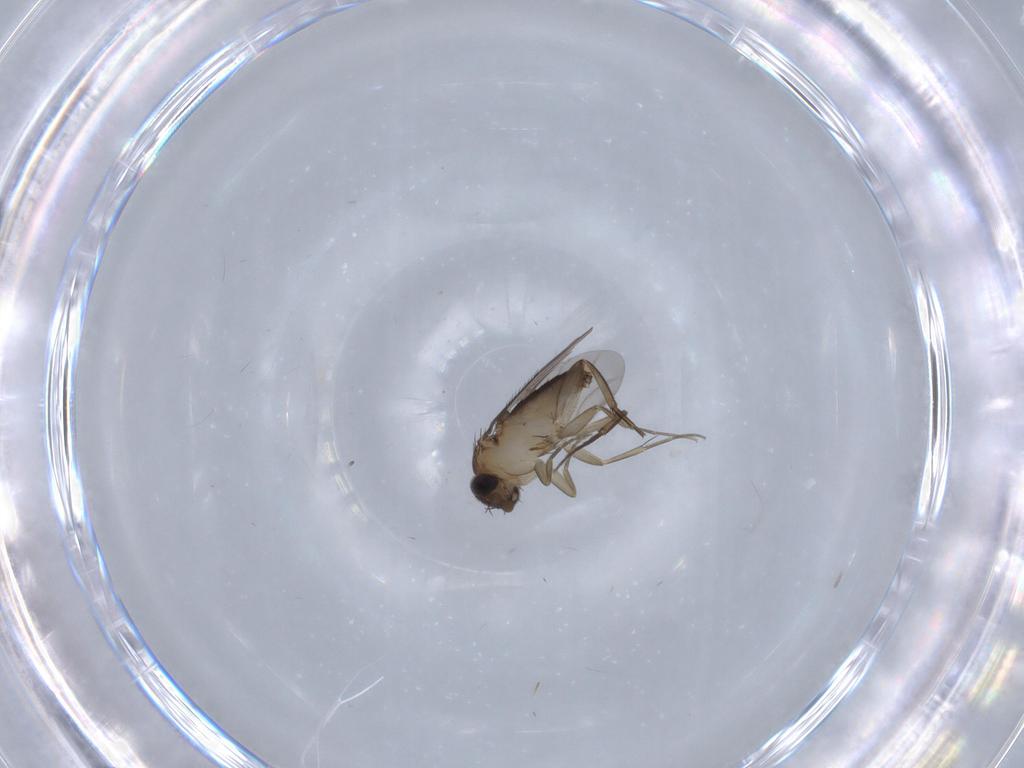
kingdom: Animalia
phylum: Arthropoda
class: Insecta
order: Diptera
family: Phoridae
